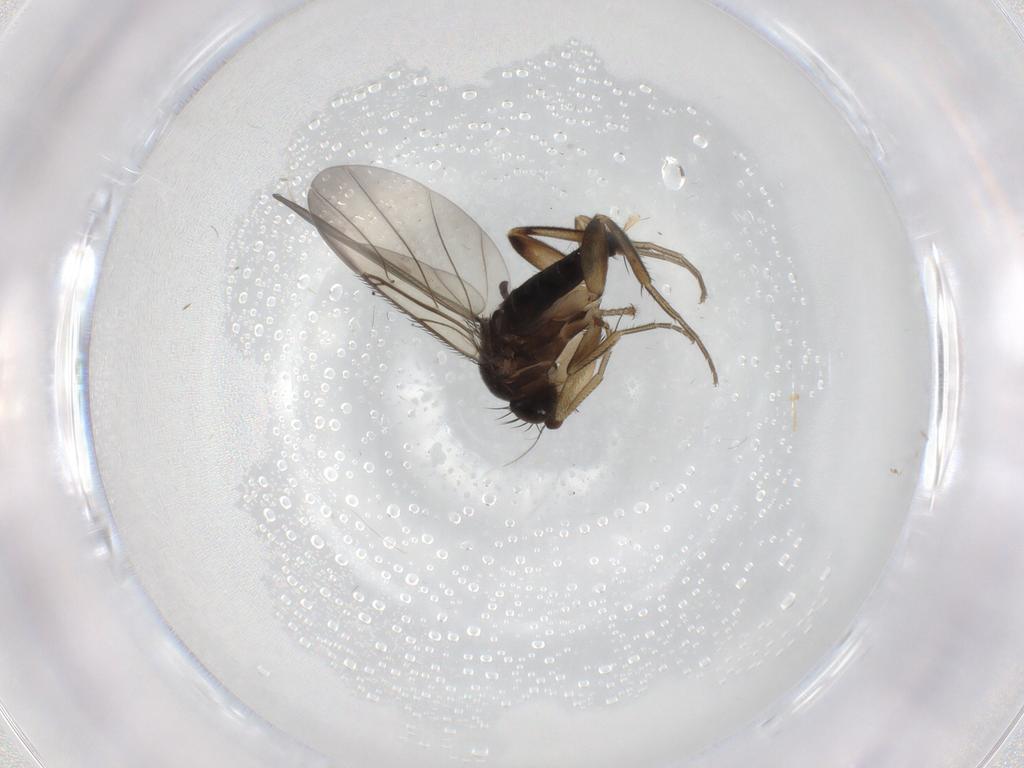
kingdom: Animalia
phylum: Arthropoda
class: Insecta
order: Diptera
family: Phoridae
